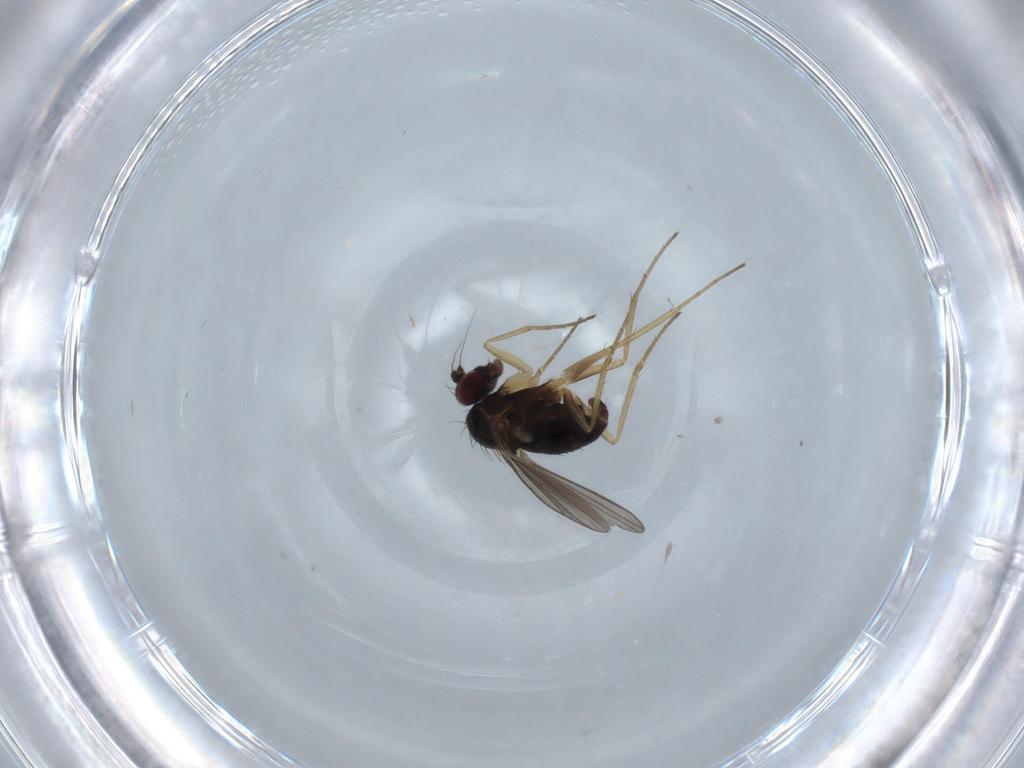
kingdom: Animalia
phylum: Arthropoda
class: Insecta
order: Diptera
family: Dolichopodidae
